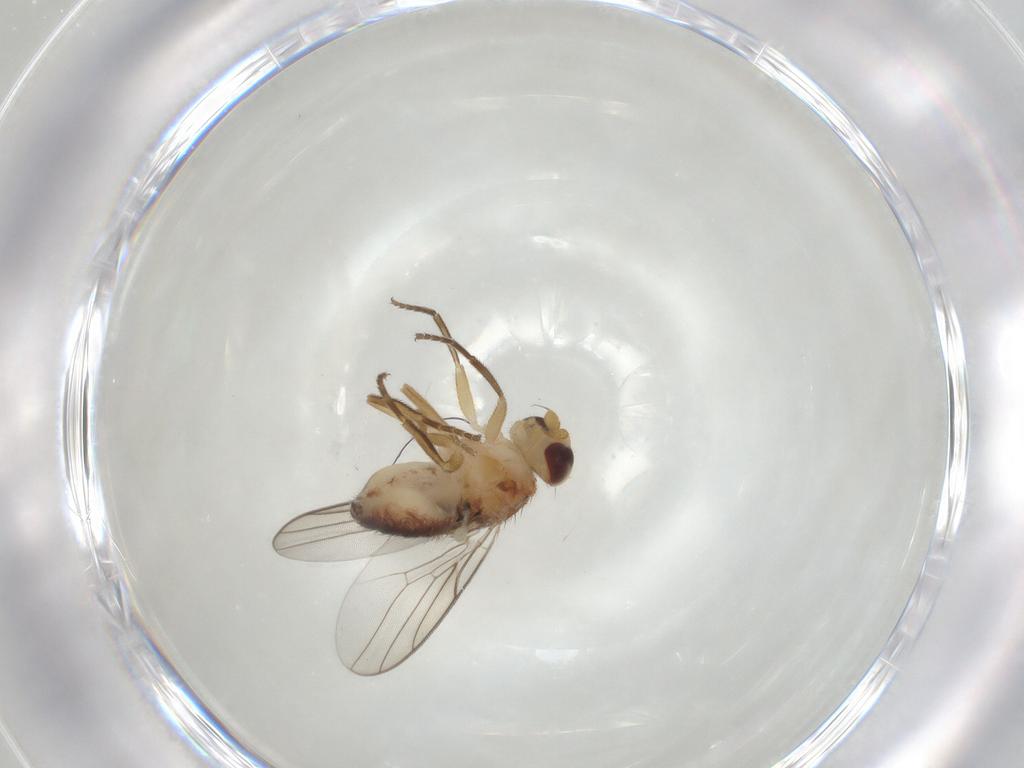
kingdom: Animalia
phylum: Arthropoda
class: Insecta
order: Diptera
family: Chloropidae
